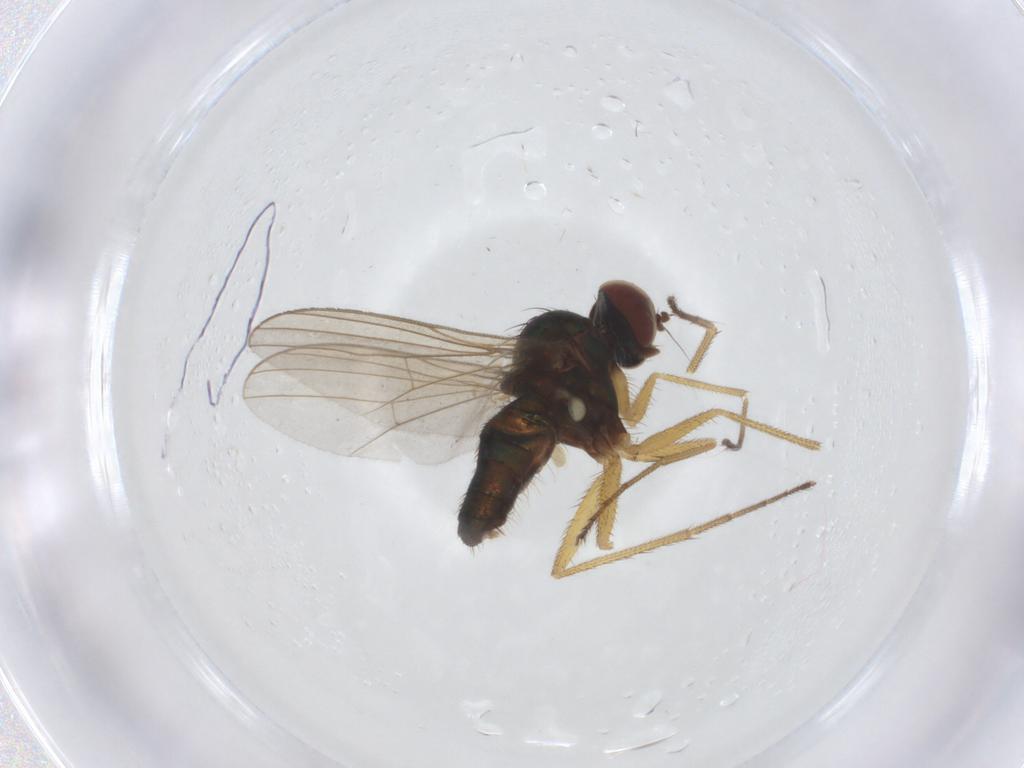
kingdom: Animalia
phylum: Arthropoda
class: Insecta
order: Diptera
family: Dolichopodidae
